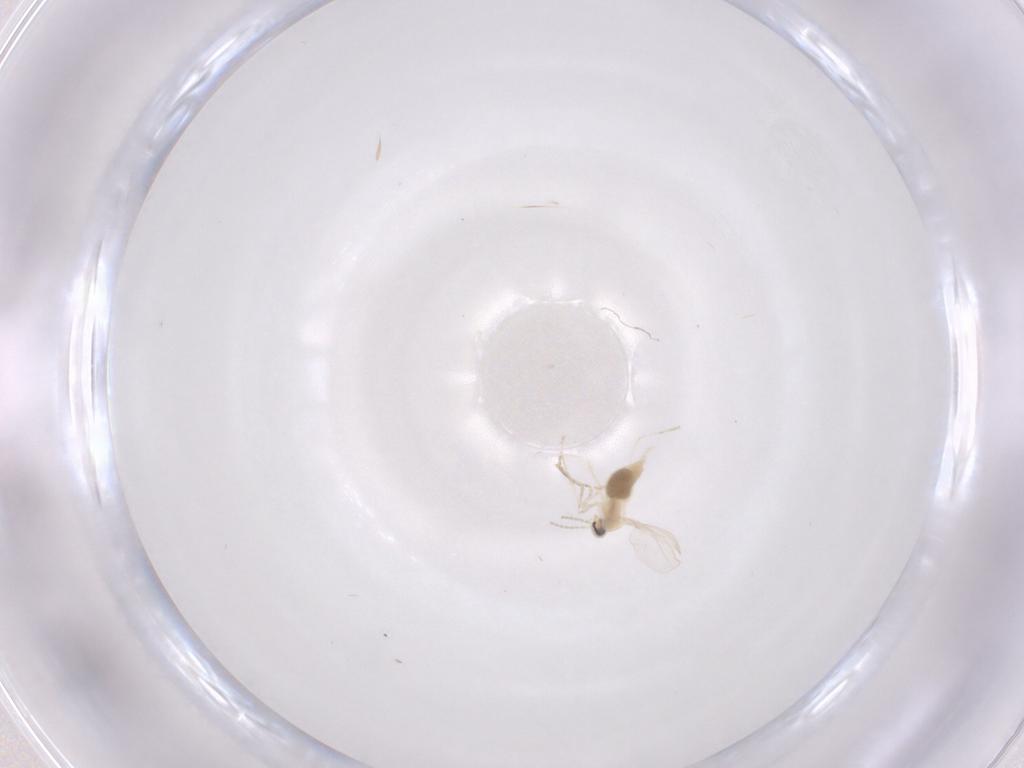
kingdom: Animalia
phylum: Arthropoda
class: Insecta
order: Diptera
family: Cecidomyiidae
